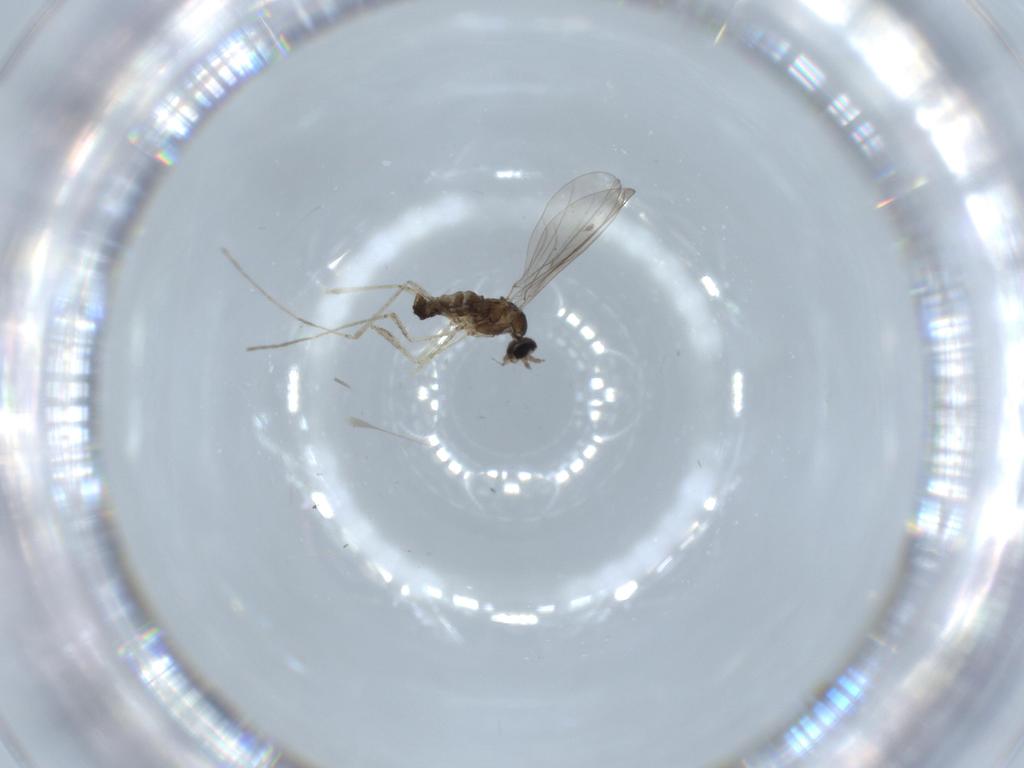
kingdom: Animalia
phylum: Arthropoda
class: Insecta
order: Diptera
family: Cecidomyiidae
